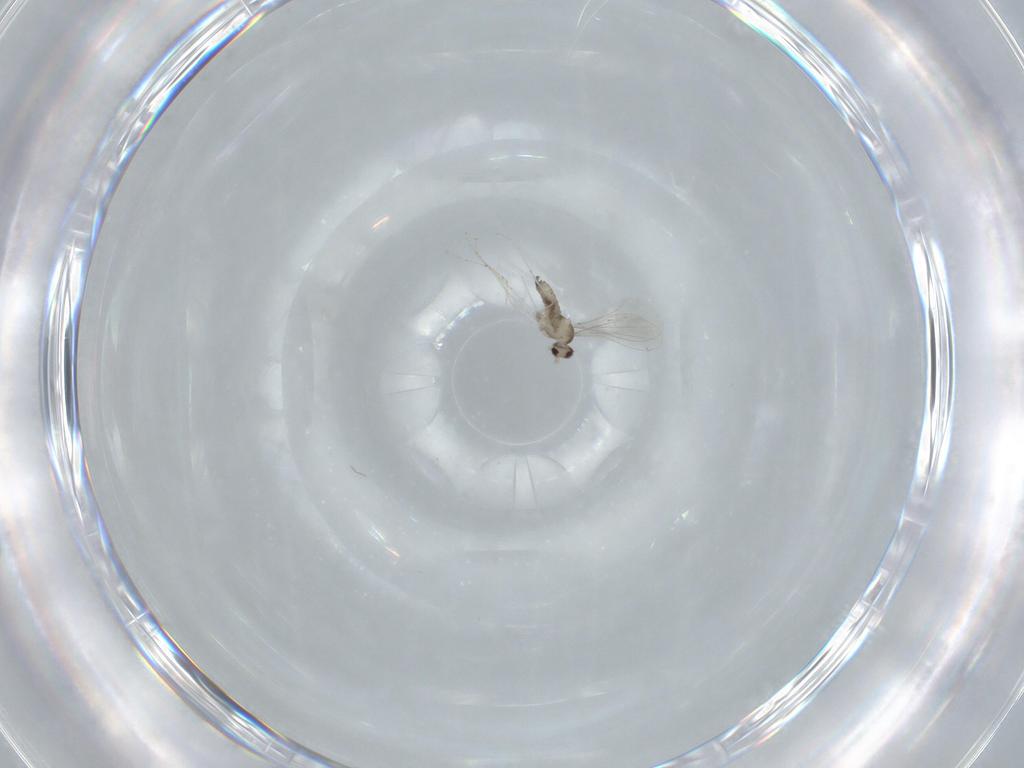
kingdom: Animalia
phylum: Arthropoda
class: Insecta
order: Diptera
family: Cecidomyiidae
